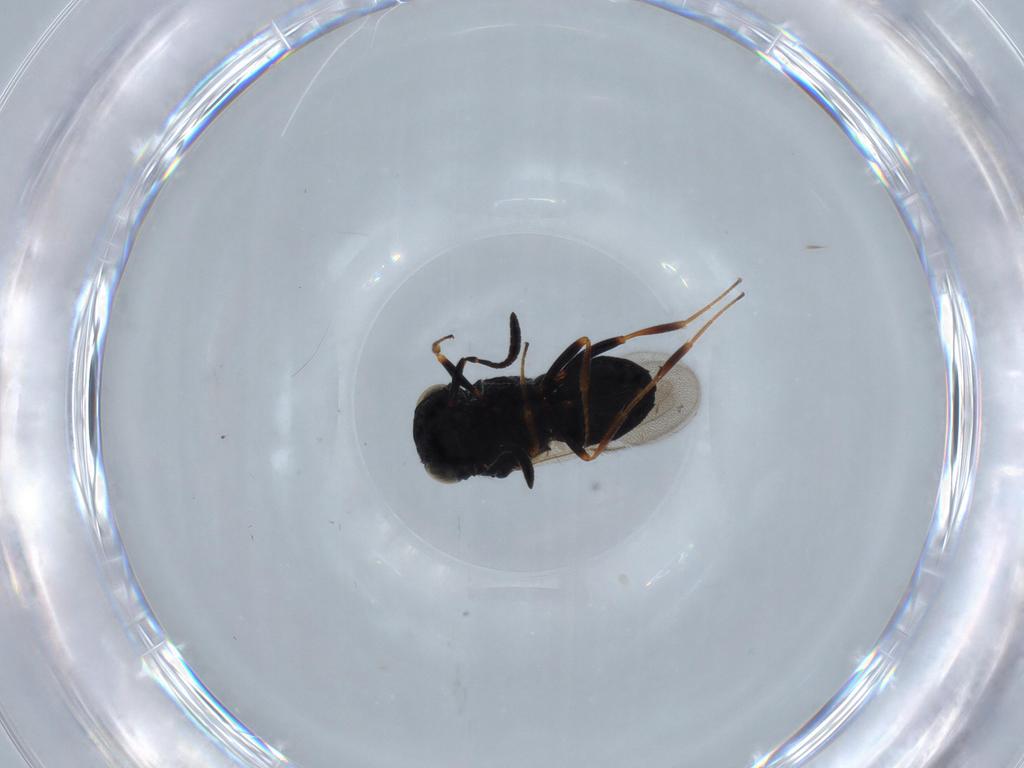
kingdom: Animalia
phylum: Arthropoda
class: Insecta
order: Hymenoptera
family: Scelionidae
